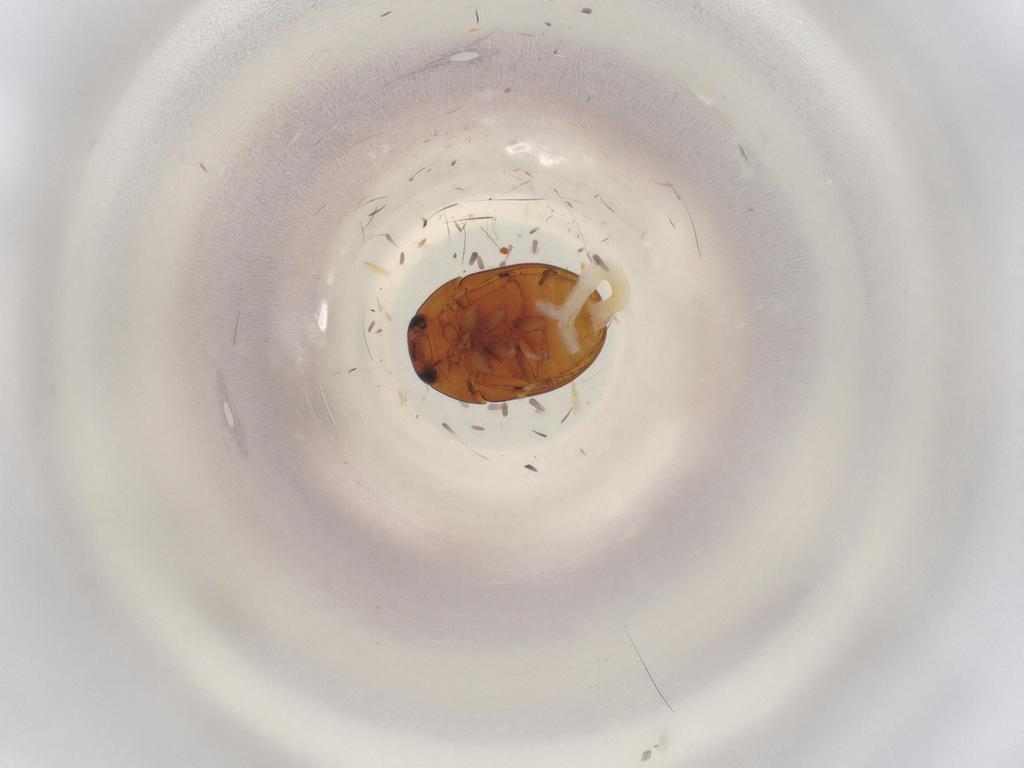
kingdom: Animalia
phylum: Arthropoda
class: Insecta
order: Coleoptera
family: Phalacridae
